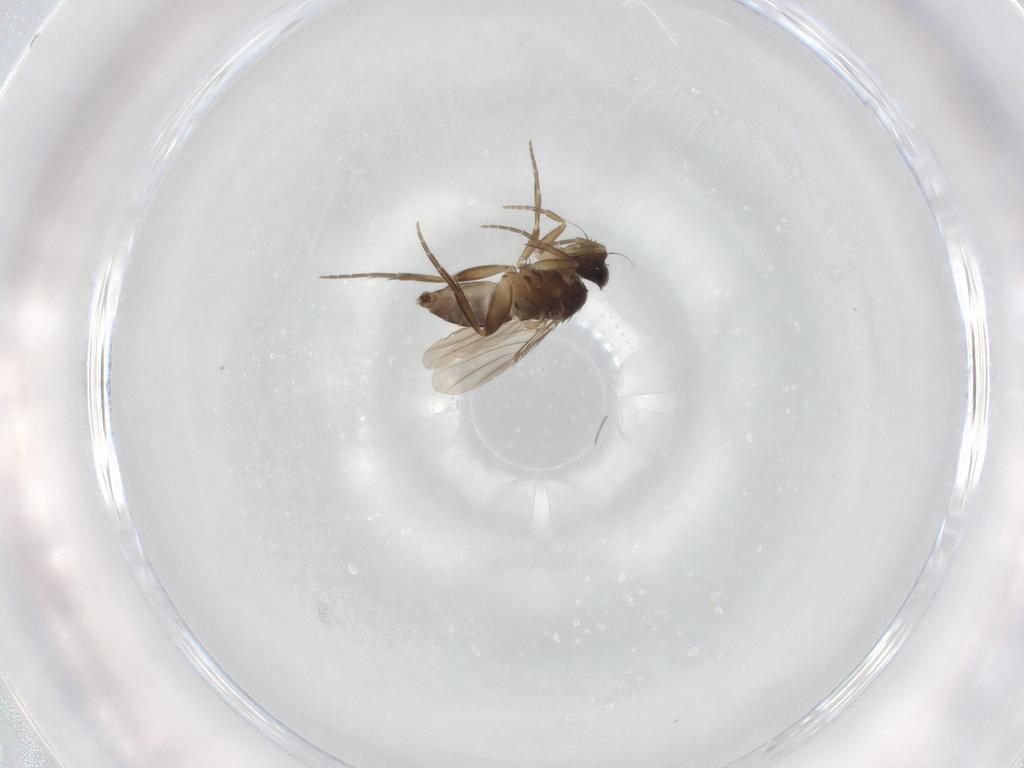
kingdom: Animalia
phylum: Arthropoda
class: Insecta
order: Diptera
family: Phoridae
